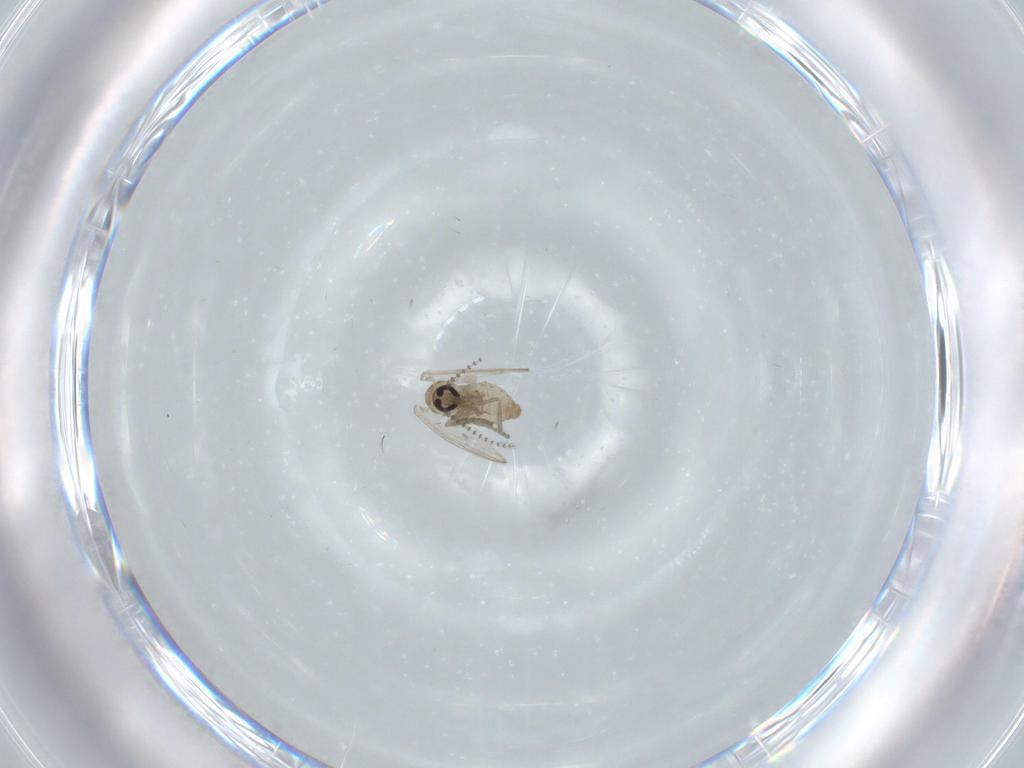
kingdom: Animalia
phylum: Arthropoda
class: Insecta
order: Diptera
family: Psychodidae
